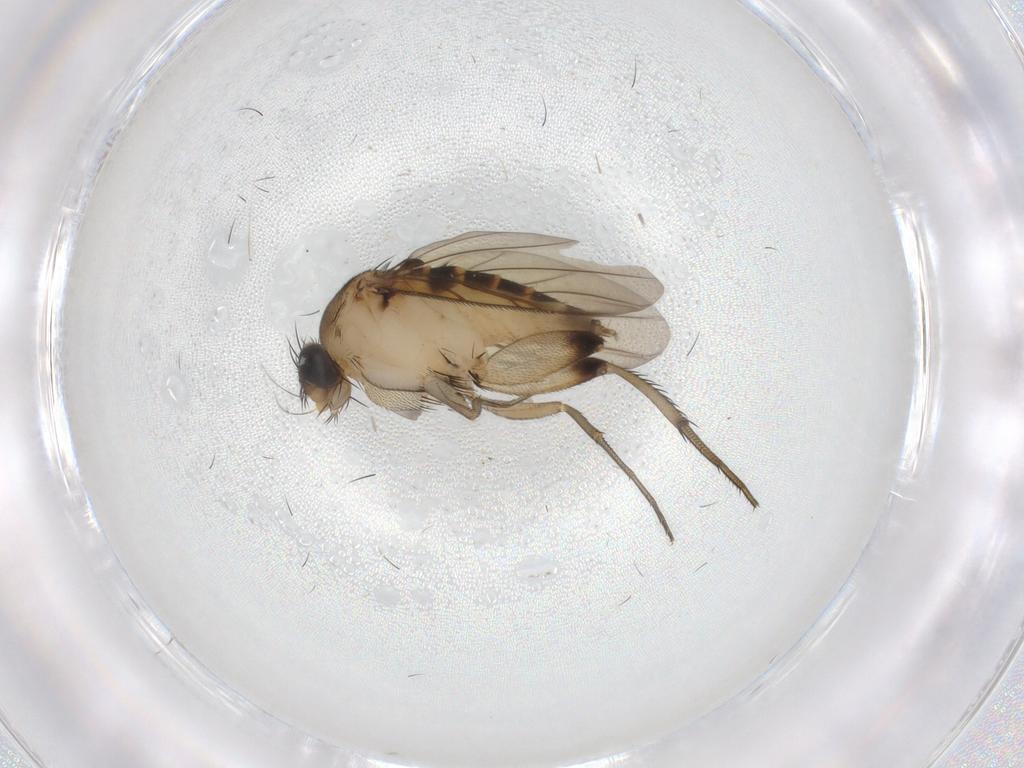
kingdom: Animalia
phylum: Arthropoda
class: Insecta
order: Diptera
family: Phoridae
